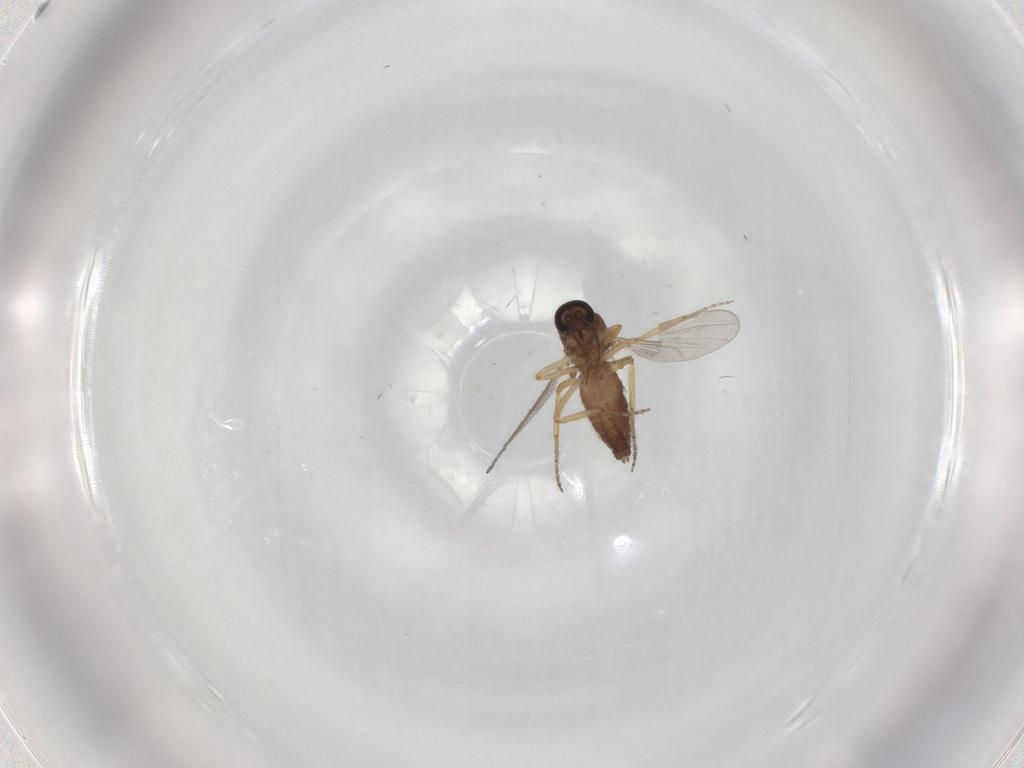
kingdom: Animalia
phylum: Arthropoda
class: Insecta
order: Diptera
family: Ceratopogonidae
